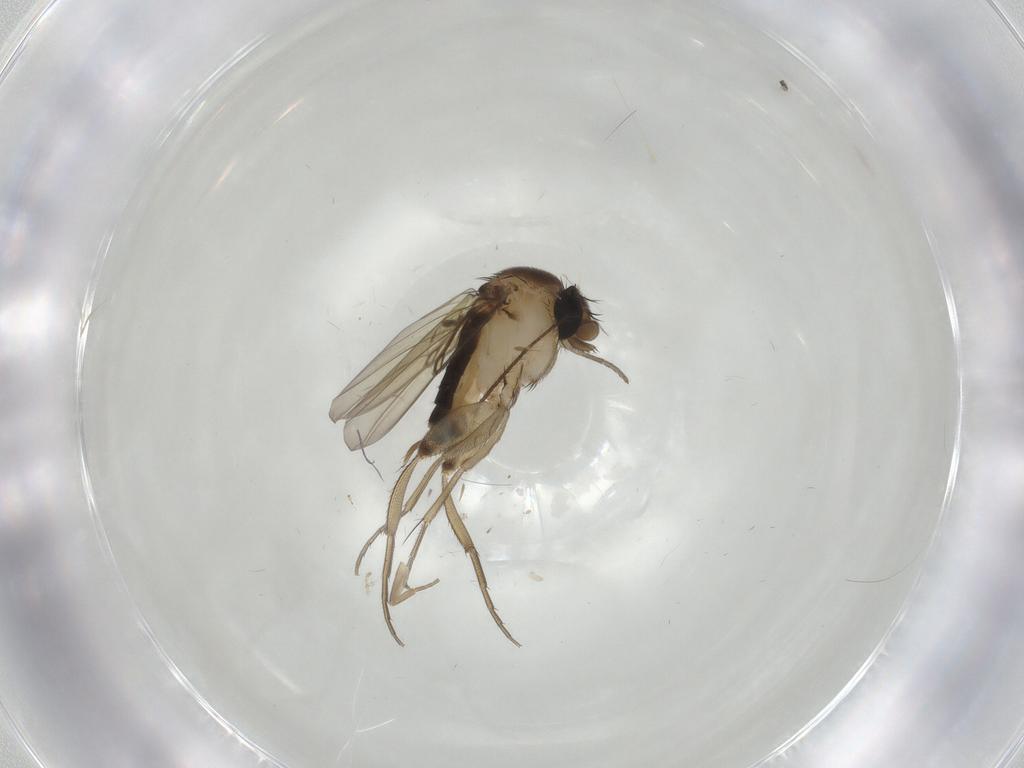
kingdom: Animalia
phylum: Arthropoda
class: Insecta
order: Diptera
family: Phoridae
